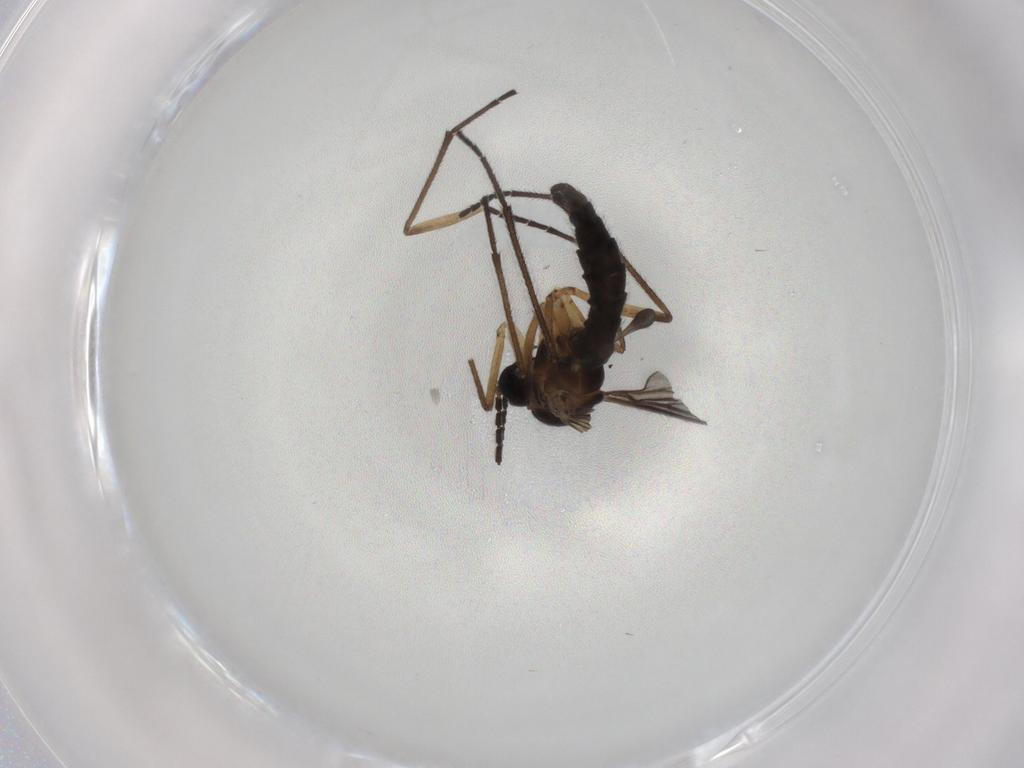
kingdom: Animalia
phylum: Arthropoda
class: Insecta
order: Diptera
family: Sciaridae
